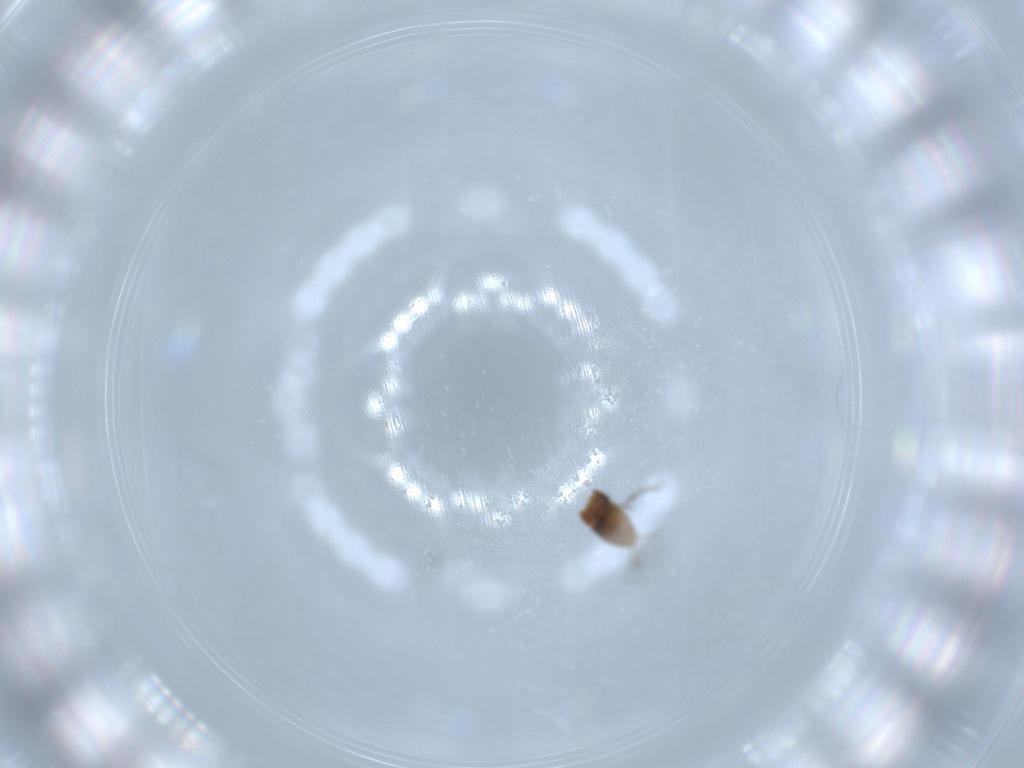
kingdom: Animalia
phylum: Arthropoda
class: Insecta
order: Coleoptera
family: Ptiliidae
